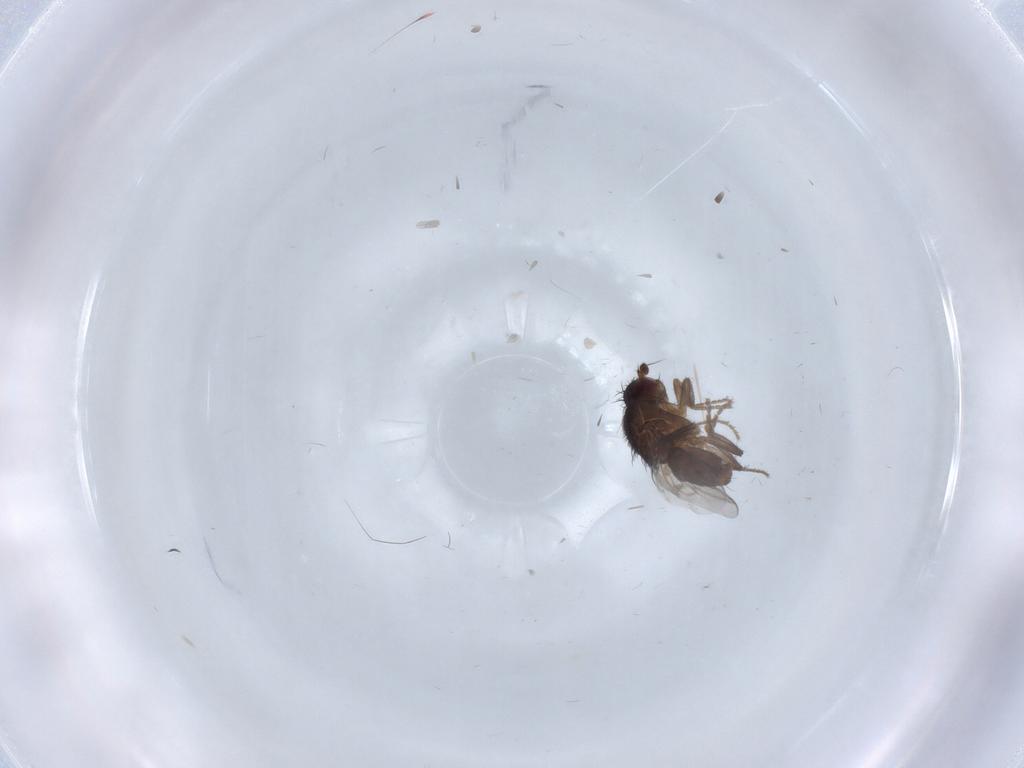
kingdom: Animalia
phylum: Arthropoda
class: Insecta
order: Diptera
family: Sphaeroceridae
